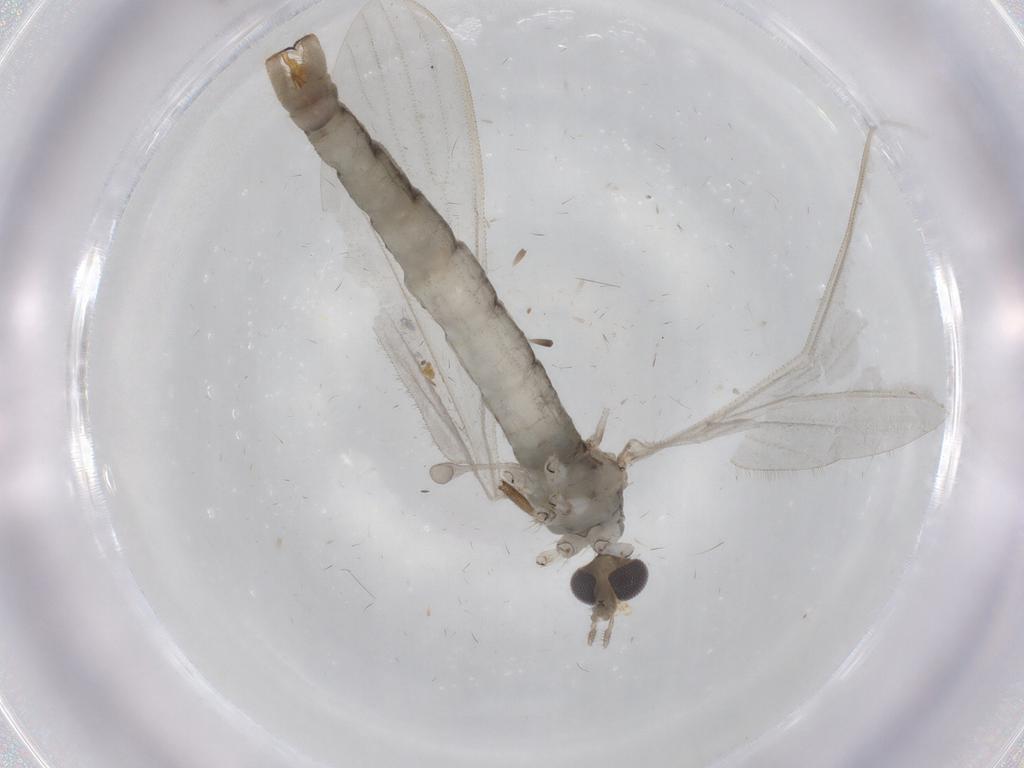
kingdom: Animalia
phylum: Arthropoda
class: Insecta
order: Diptera
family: Cecidomyiidae
